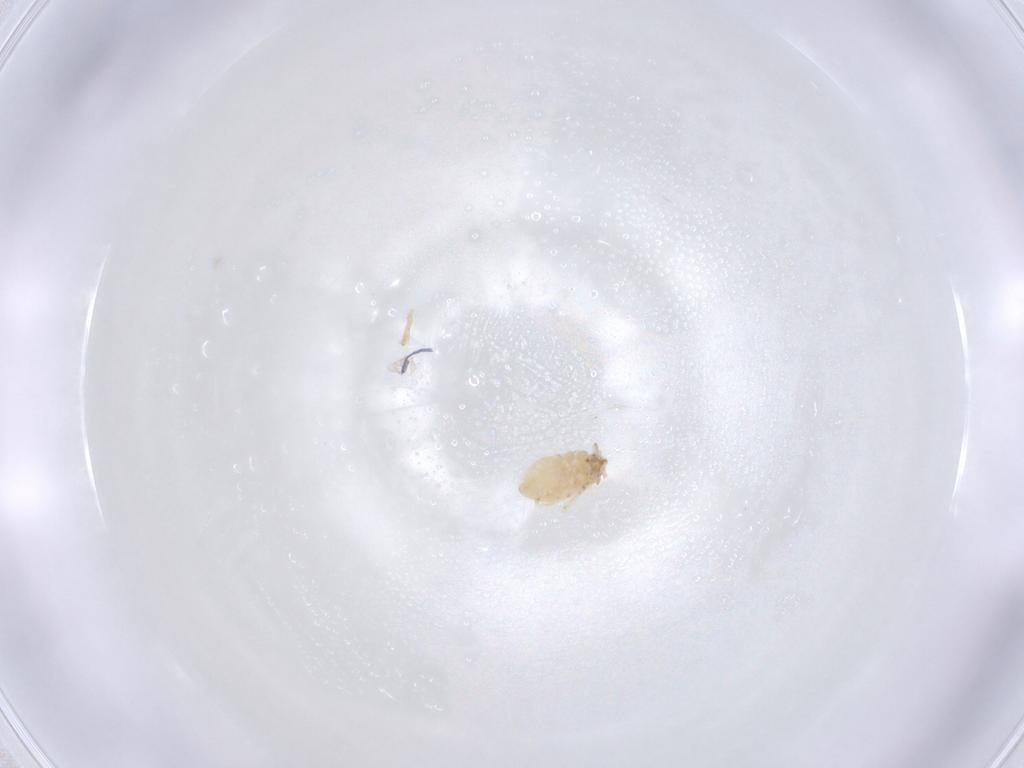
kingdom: Animalia
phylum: Arthropoda
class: Insecta
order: Neuroptera
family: Coniopterygidae
